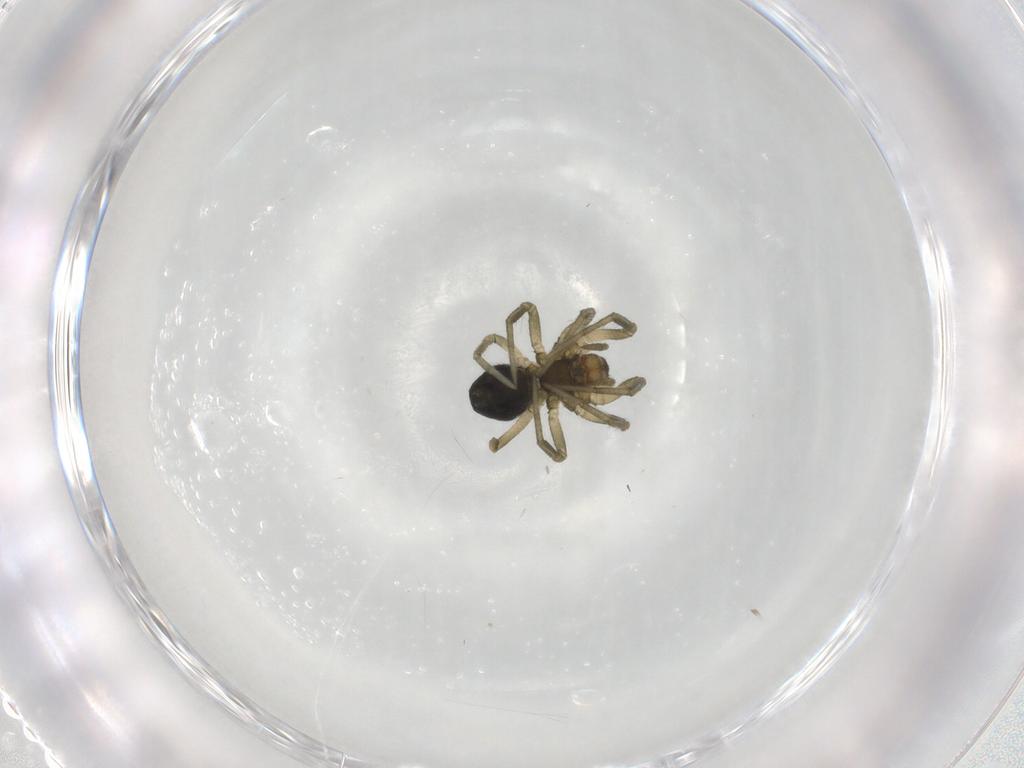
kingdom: Animalia
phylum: Arthropoda
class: Arachnida
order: Araneae
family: Linyphiidae
